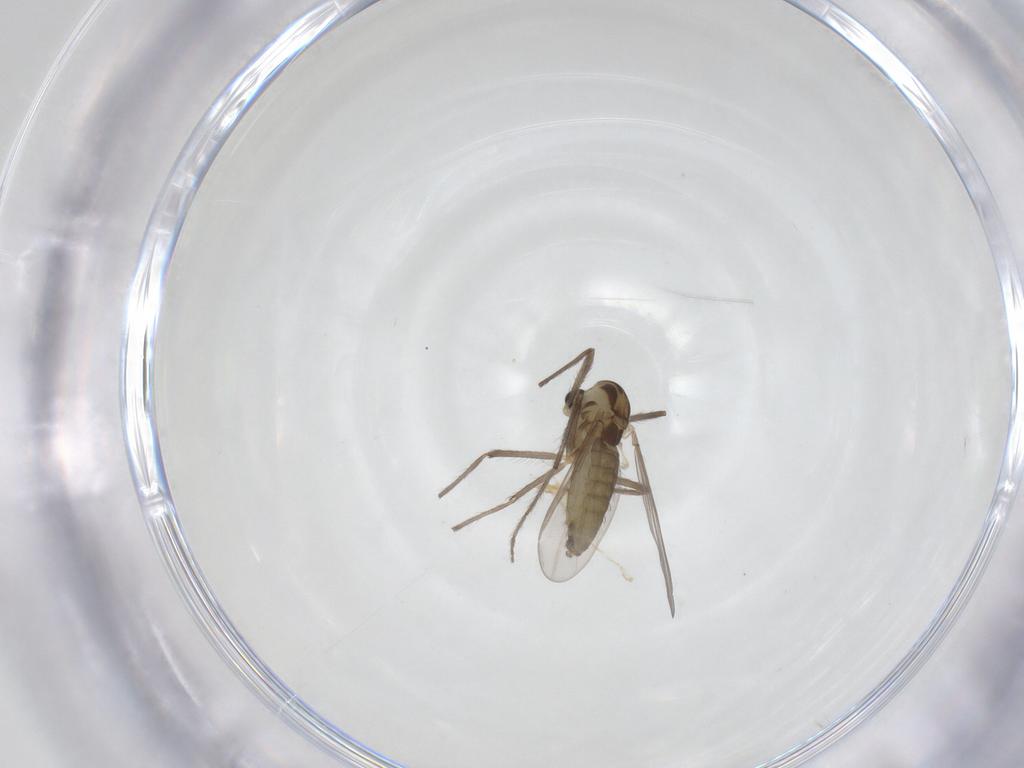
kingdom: Animalia
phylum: Arthropoda
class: Insecta
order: Diptera
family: Chironomidae
